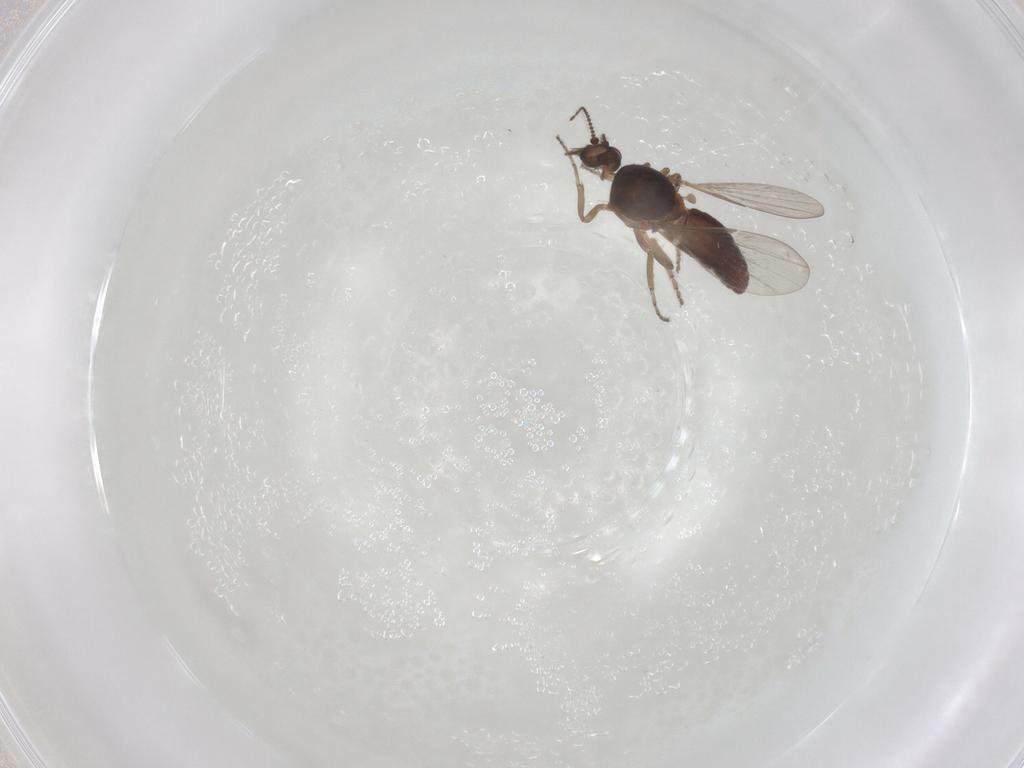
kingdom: Animalia
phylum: Arthropoda
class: Insecta
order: Diptera
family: Ceratopogonidae
